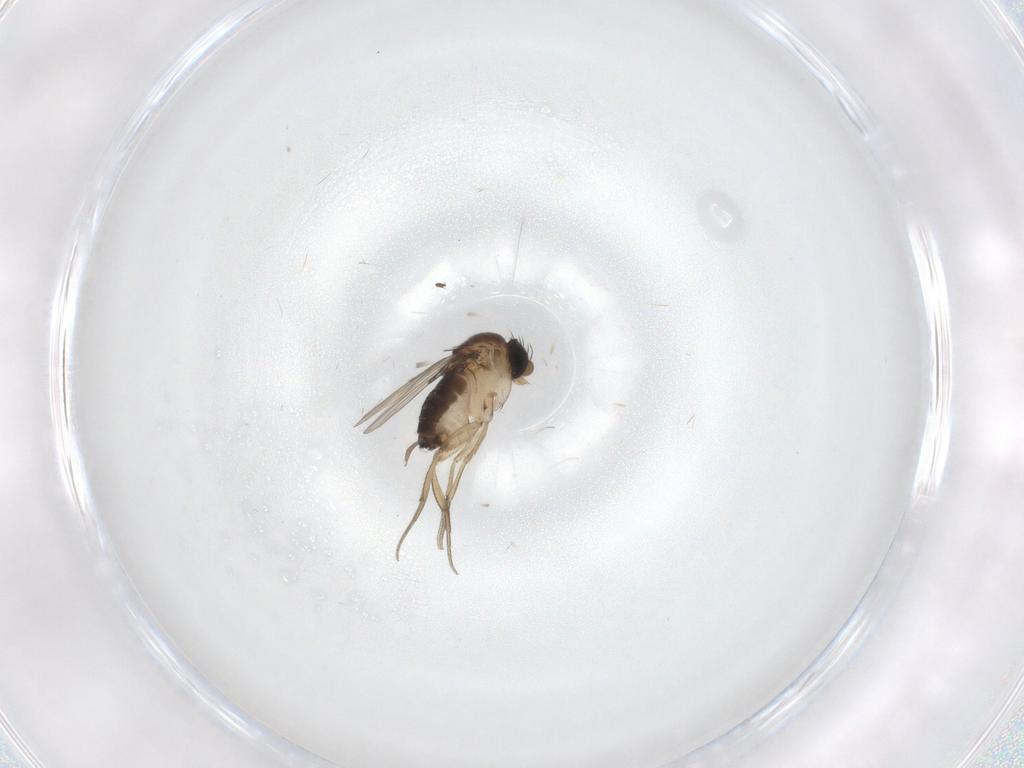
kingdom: Animalia
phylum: Arthropoda
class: Insecta
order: Diptera
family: Milichiidae
